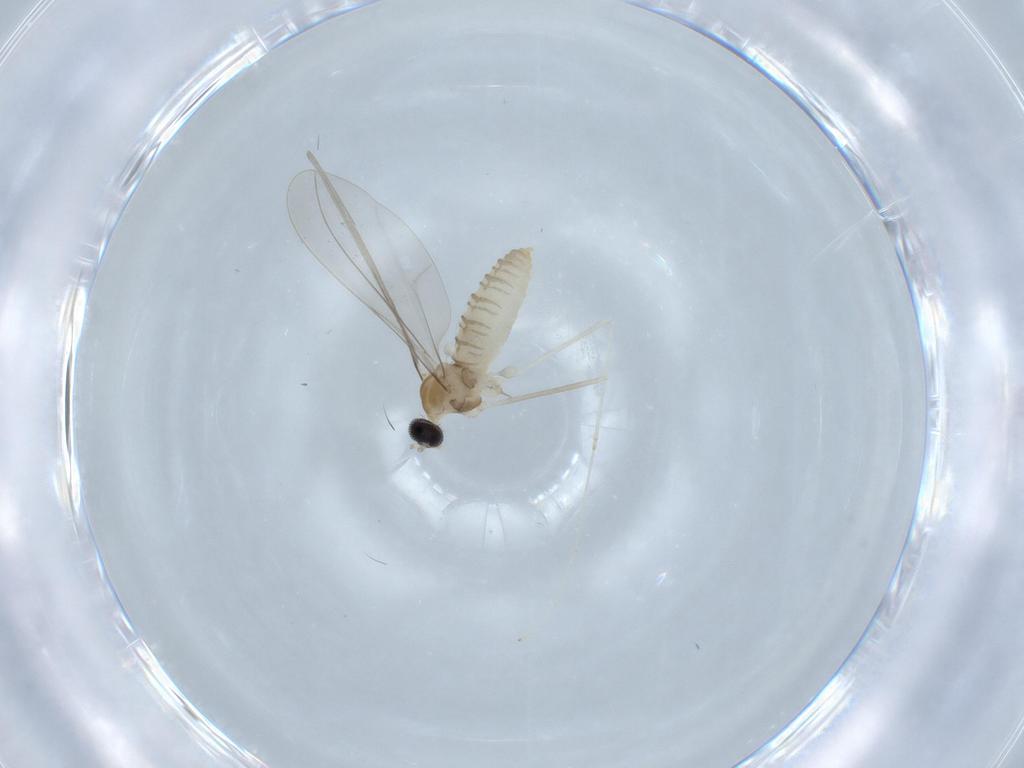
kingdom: Animalia
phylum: Arthropoda
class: Insecta
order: Diptera
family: Cecidomyiidae
